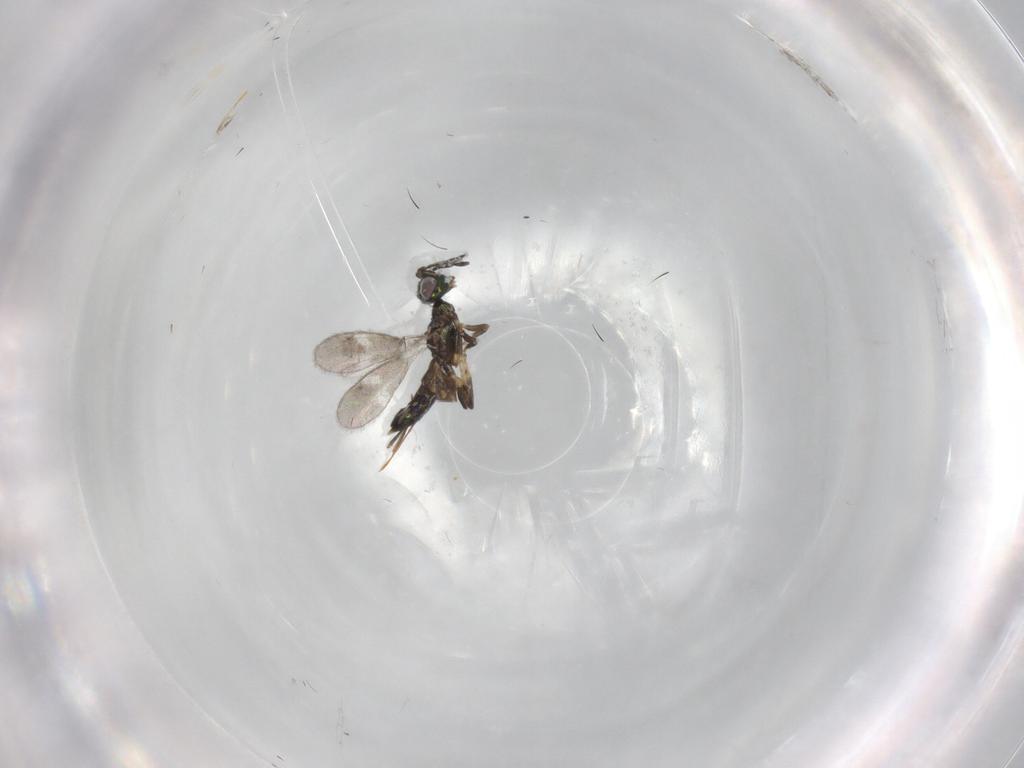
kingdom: Animalia
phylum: Arthropoda
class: Insecta
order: Hymenoptera
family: Eupelmidae
